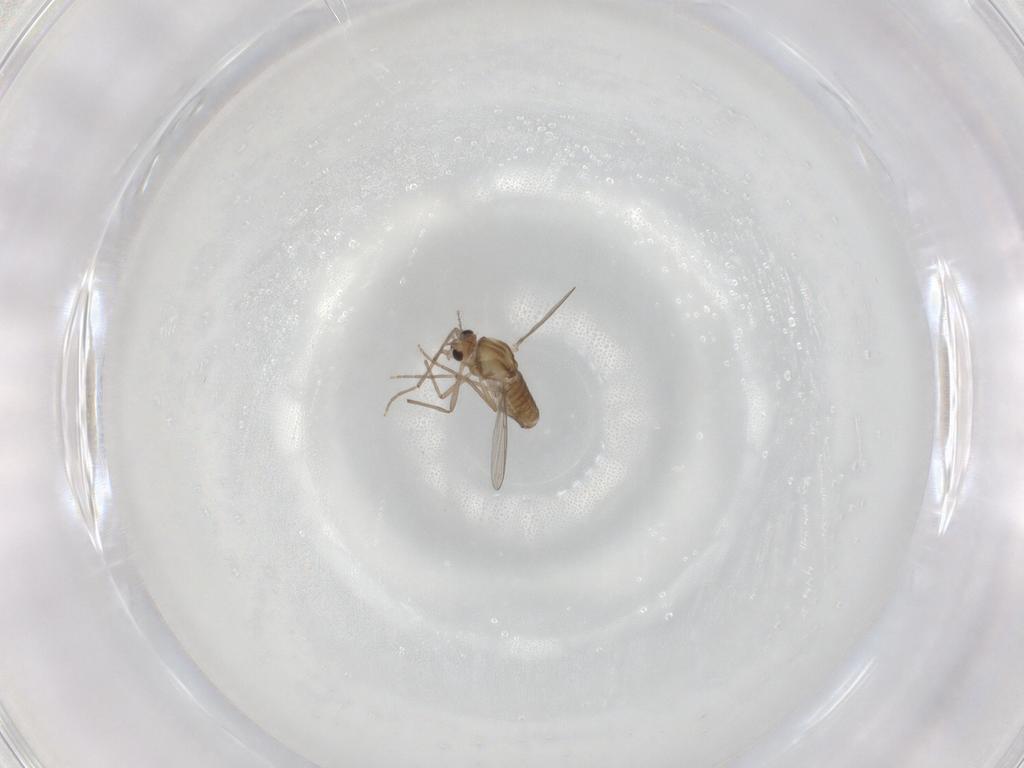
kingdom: Animalia
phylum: Arthropoda
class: Insecta
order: Diptera
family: Chironomidae
